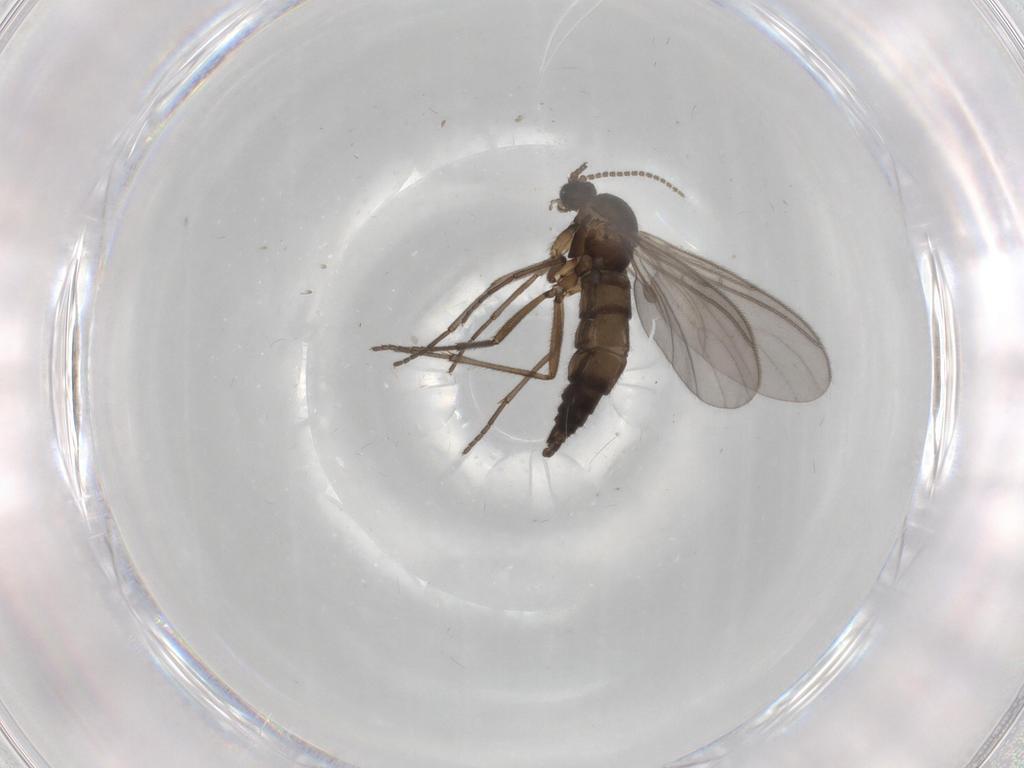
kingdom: Animalia
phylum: Arthropoda
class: Insecta
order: Diptera
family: Sciaridae
